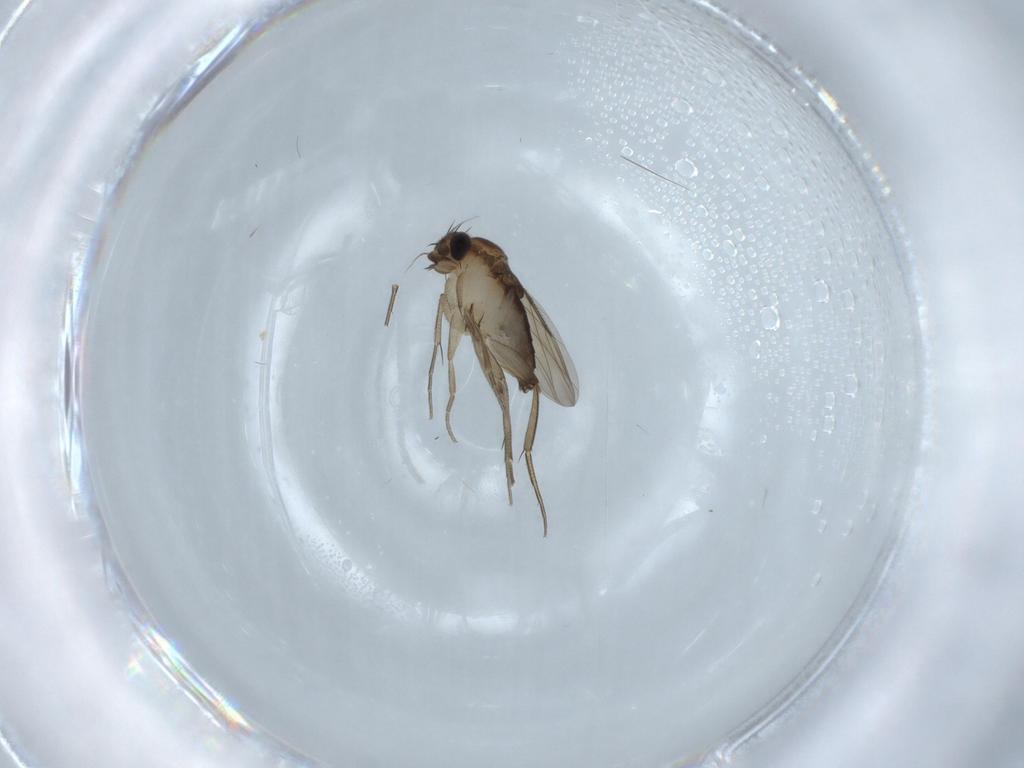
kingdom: Animalia
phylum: Arthropoda
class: Insecta
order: Diptera
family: Phoridae
